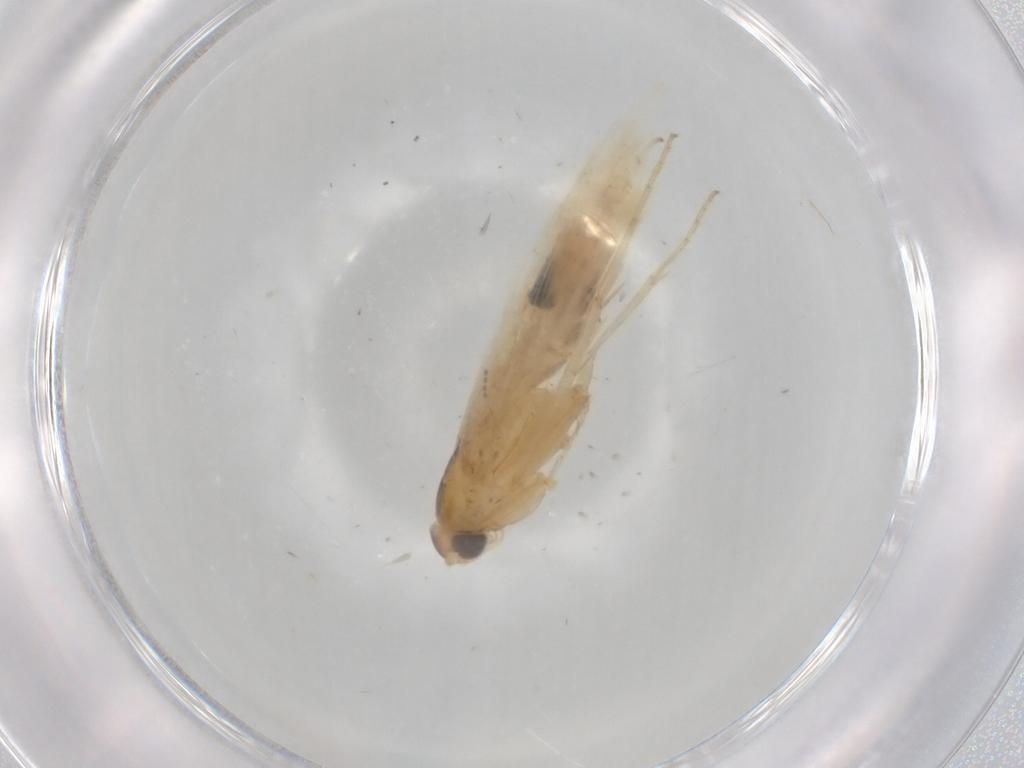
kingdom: Animalia
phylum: Arthropoda
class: Insecta
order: Lepidoptera
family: Gelechiidae
